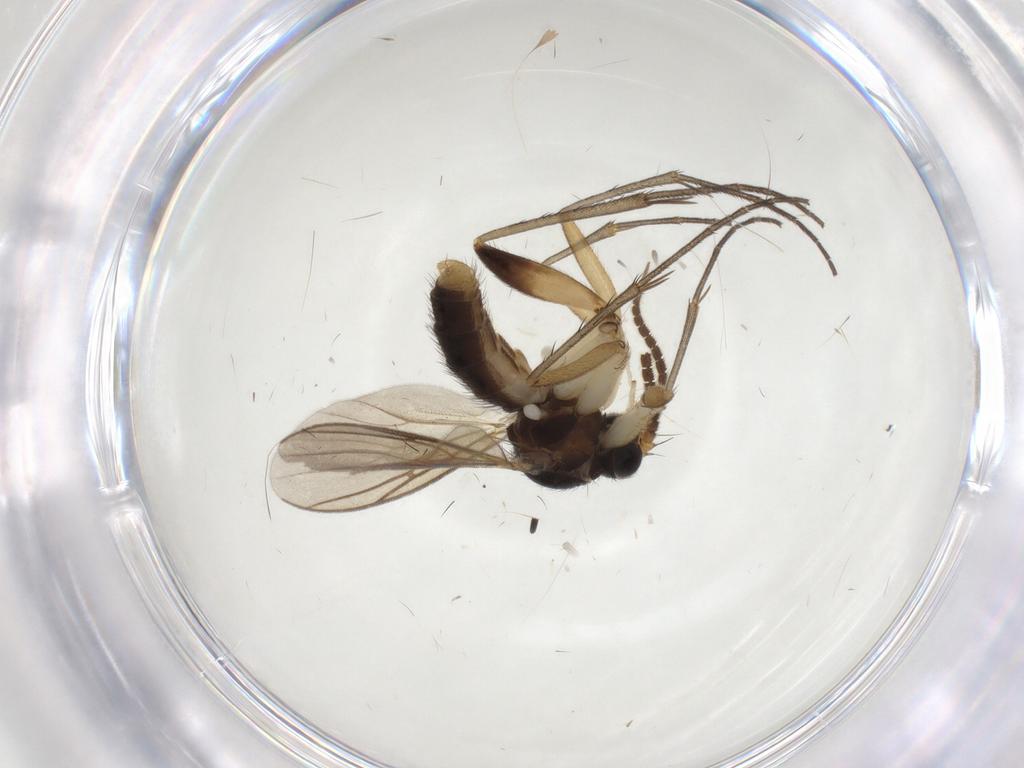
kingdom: Animalia
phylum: Arthropoda
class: Insecta
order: Diptera
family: Mycetophilidae
